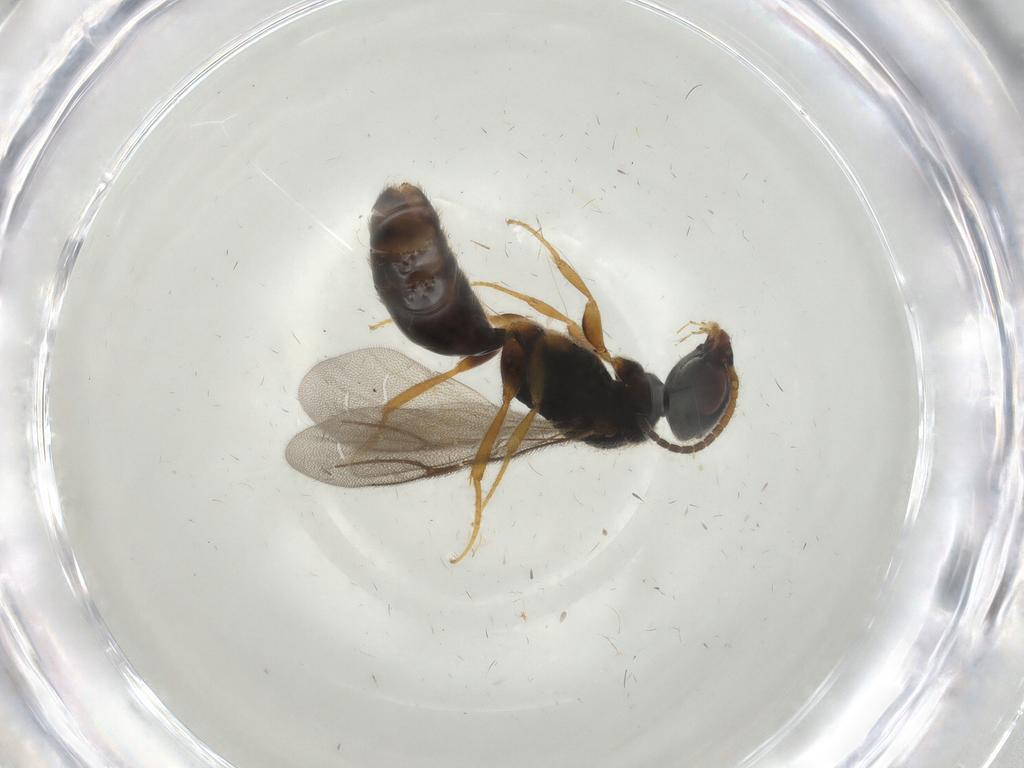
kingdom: Animalia
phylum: Arthropoda
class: Insecta
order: Hymenoptera
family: Bethylidae
